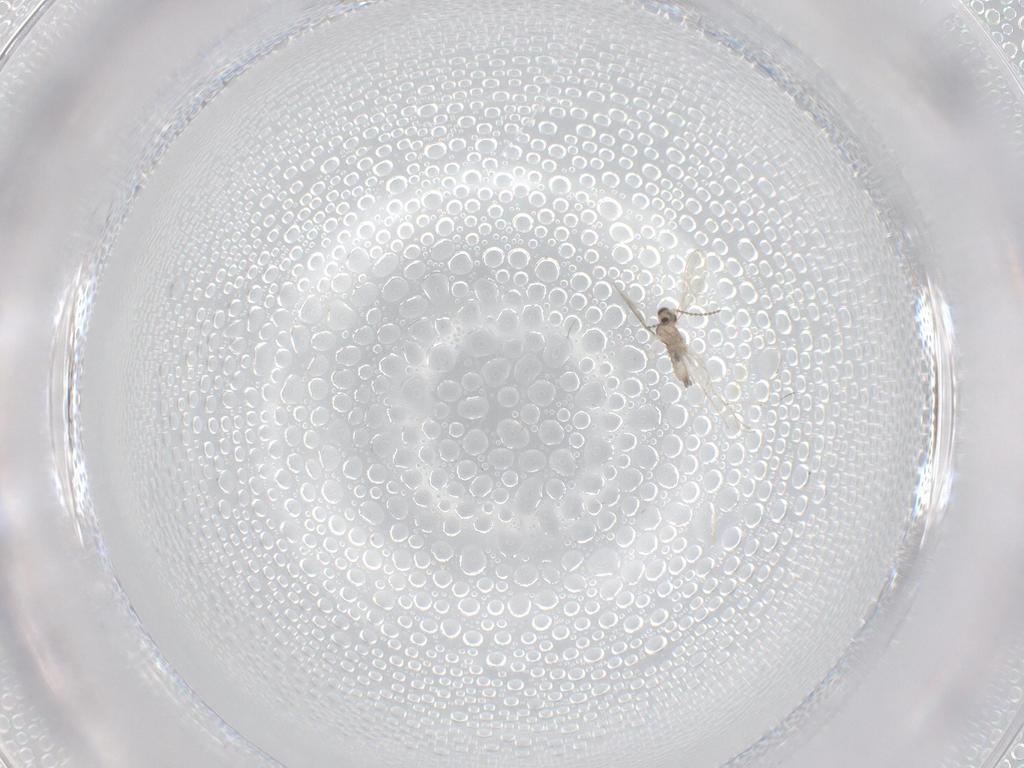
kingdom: Animalia
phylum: Arthropoda
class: Insecta
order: Diptera
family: Cecidomyiidae
